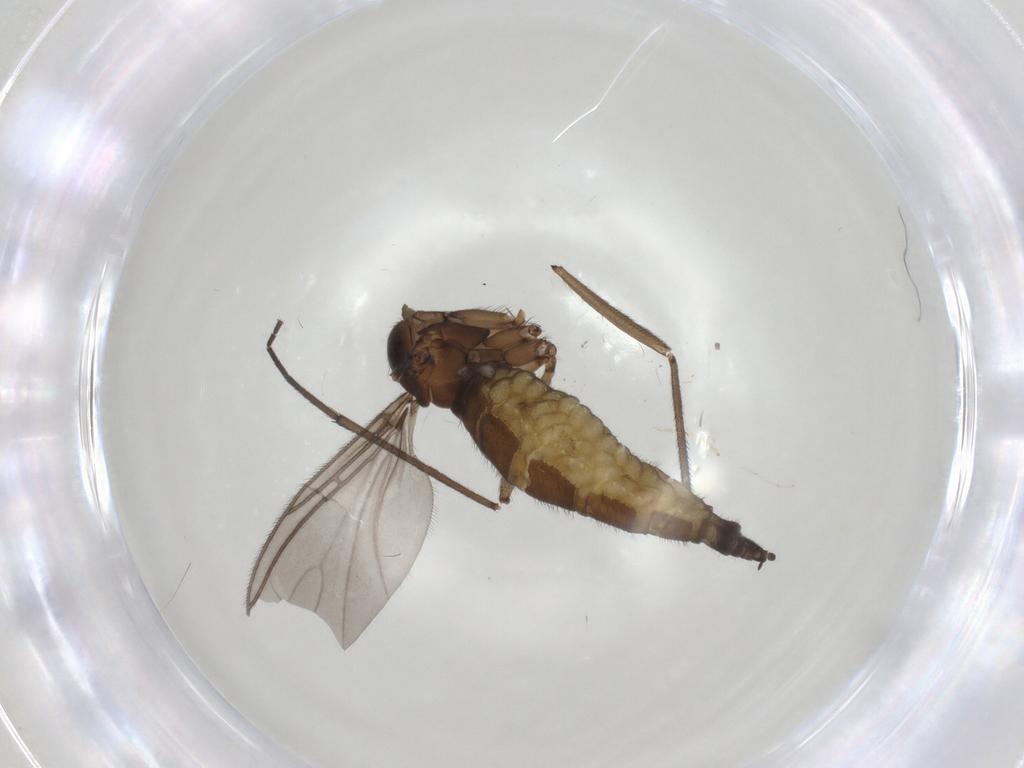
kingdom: Animalia
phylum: Arthropoda
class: Insecta
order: Diptera
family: Sciaridae
